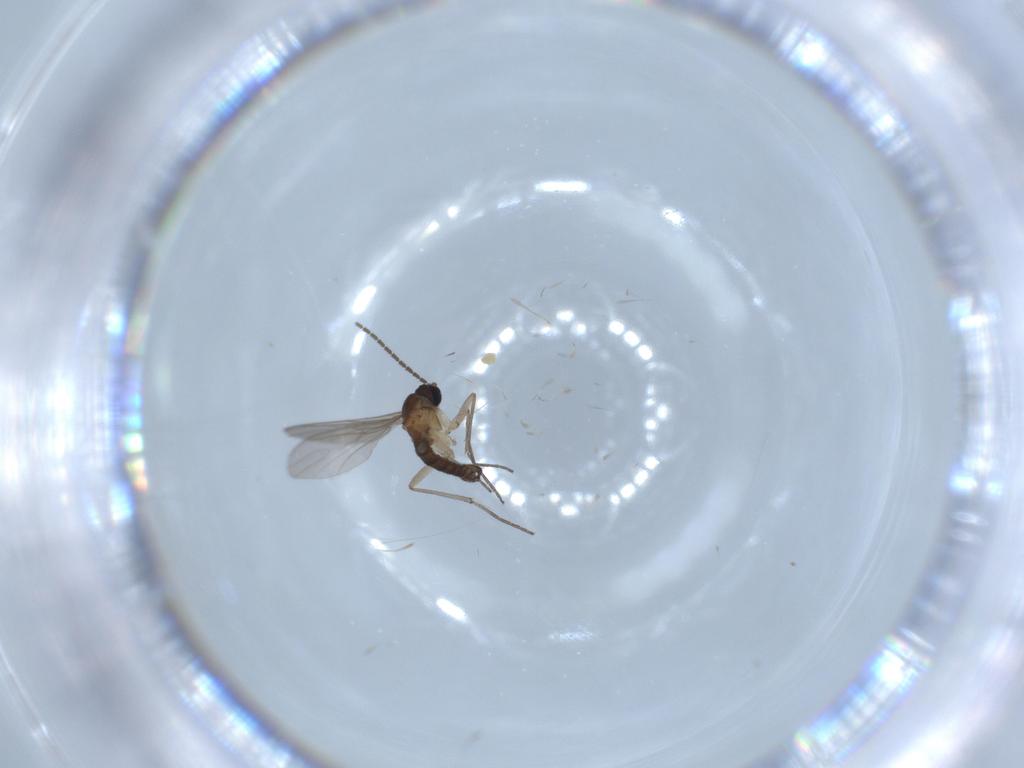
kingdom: Animalia
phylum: Arthropoda
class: Insecta
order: Diptera
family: Sciaridae
